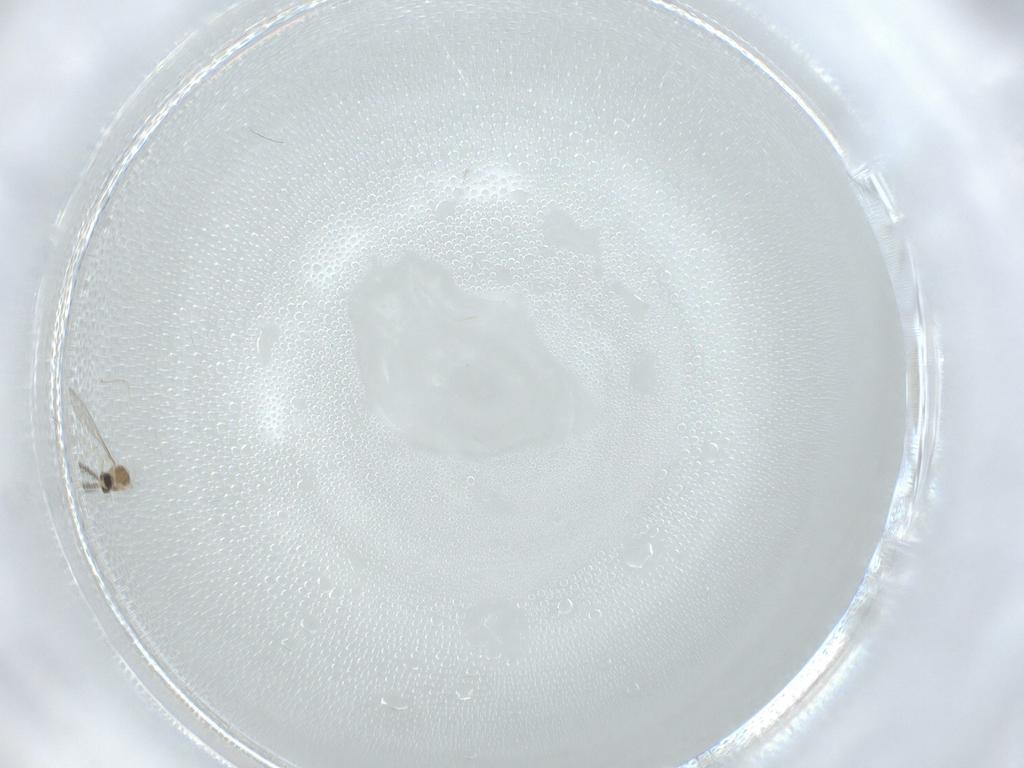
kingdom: Animalia
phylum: Arthropoda
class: Insecta
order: Diptera
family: Cecidomyiidae
